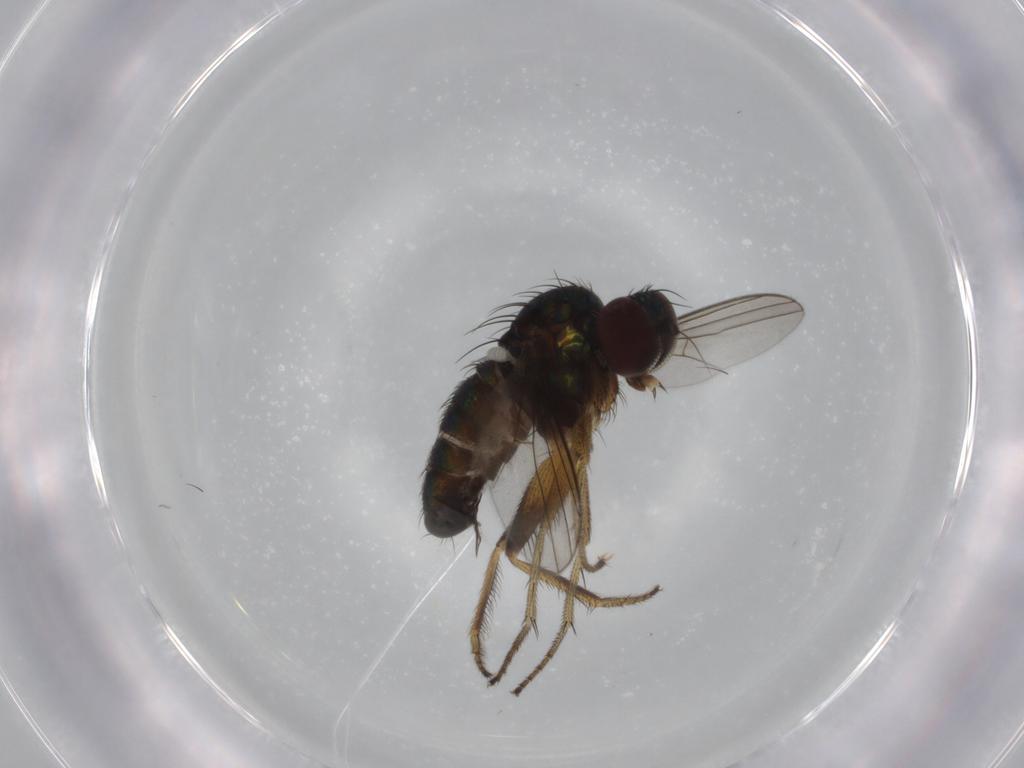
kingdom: Animalia
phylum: Arthropoda
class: Insecta
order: Diptera
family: Dolichopodidae
